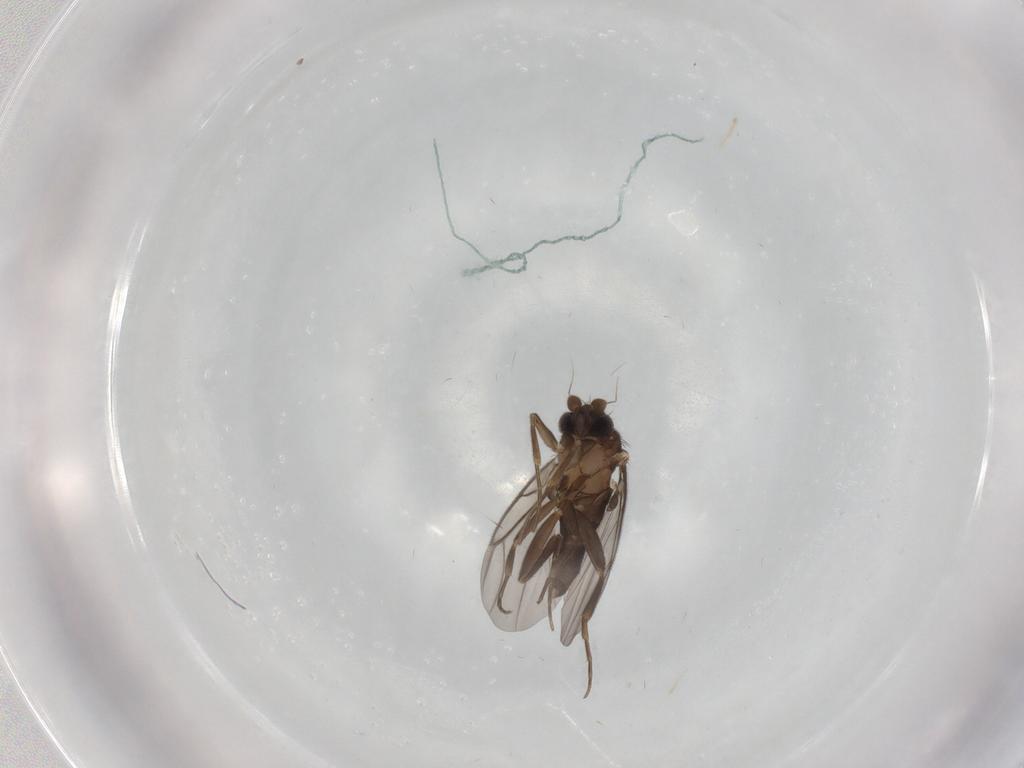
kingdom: Animalia
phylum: Arthropoda
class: Insecta
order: Diptera
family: Phoridae
